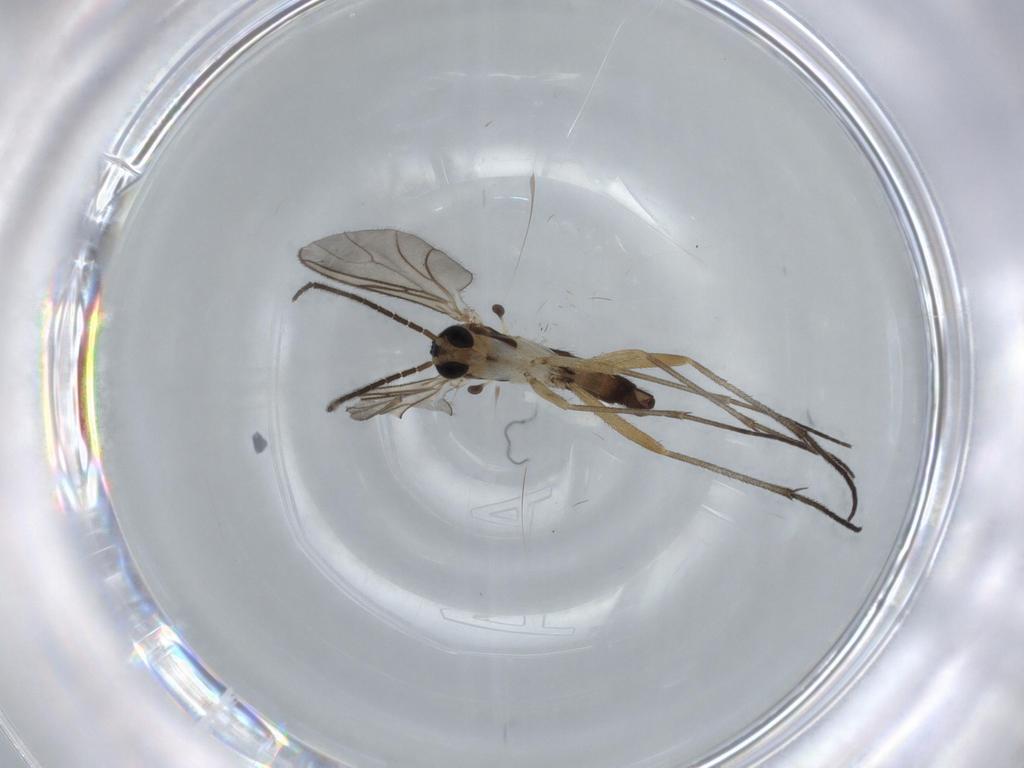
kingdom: Animalia
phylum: Arthropoda
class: Insecta
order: Diptera
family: Sciaridae
